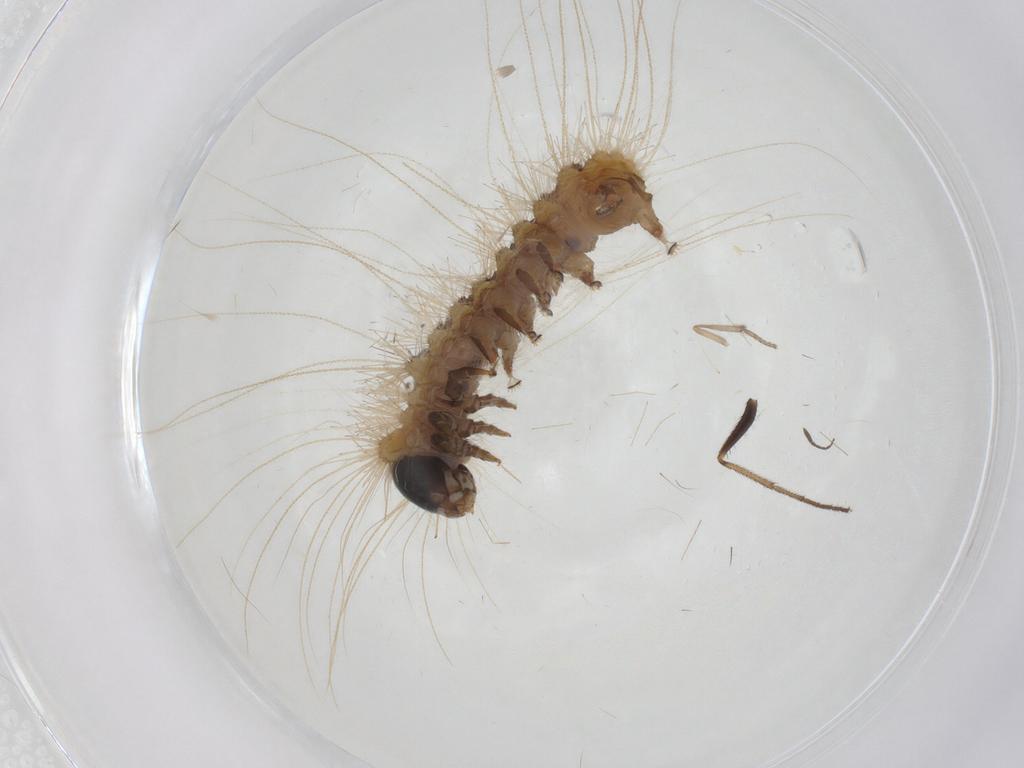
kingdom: Animalia
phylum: Arthropoda
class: Insecta
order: Lepidoptera
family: Erebidae
